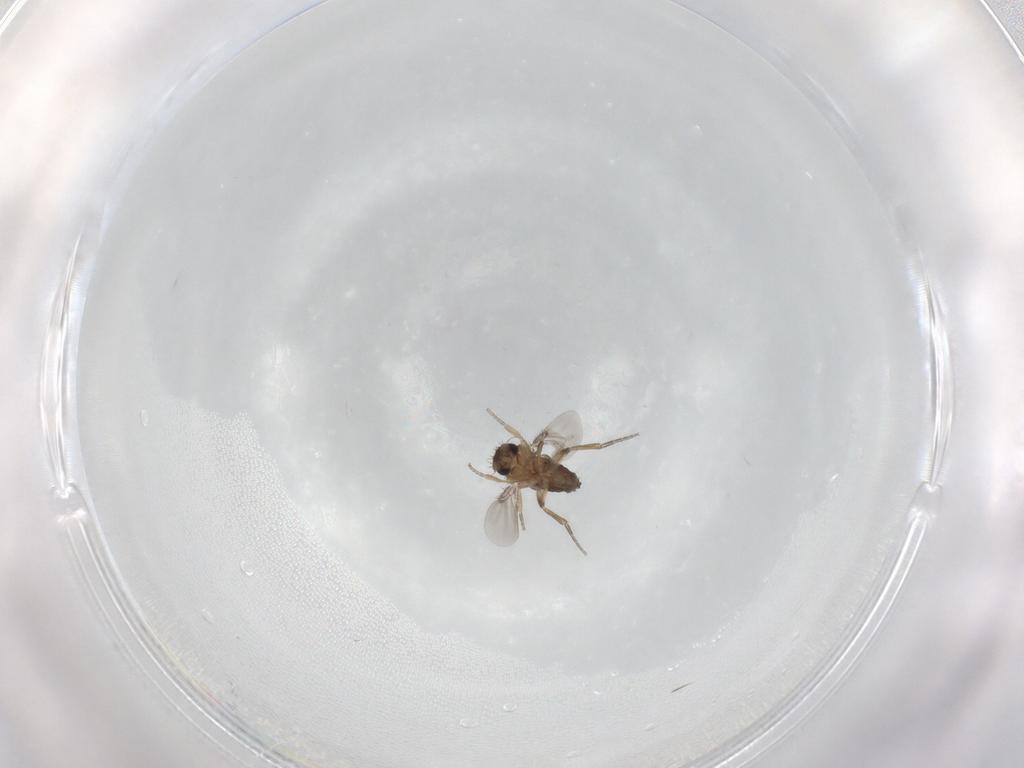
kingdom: Animalia
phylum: Arthropoda
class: Insecta
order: Diptera
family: Phoridae
